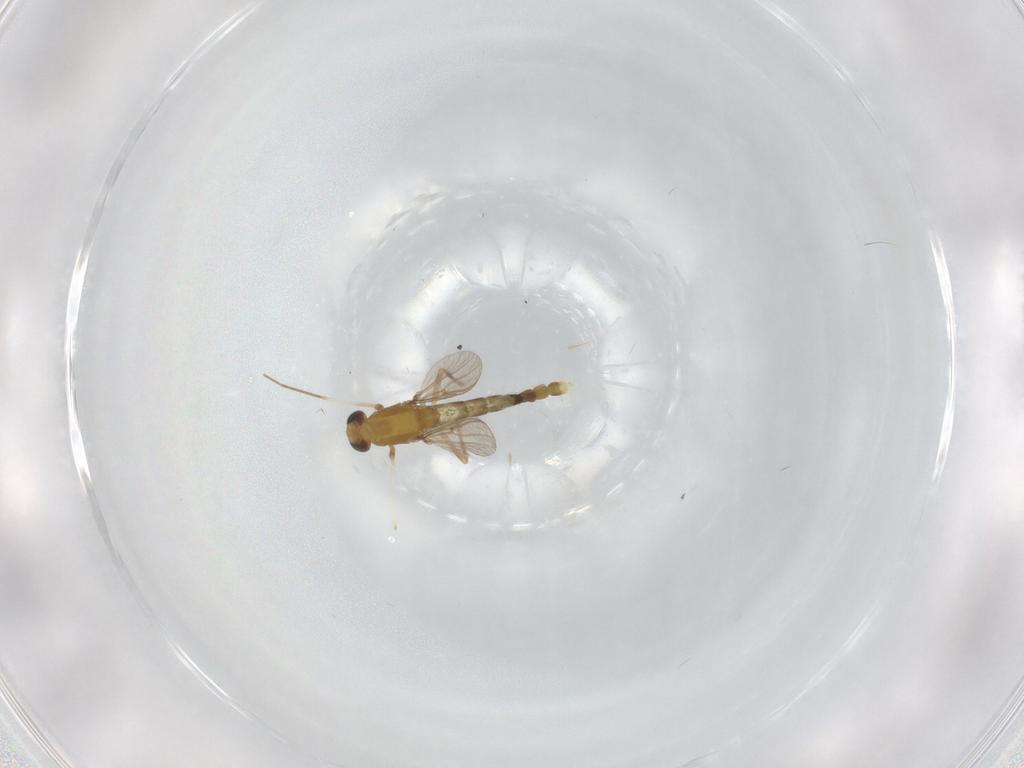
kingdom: Animalia
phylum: Arthropoda
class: Insecta
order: Diptera
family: Chironomidae
